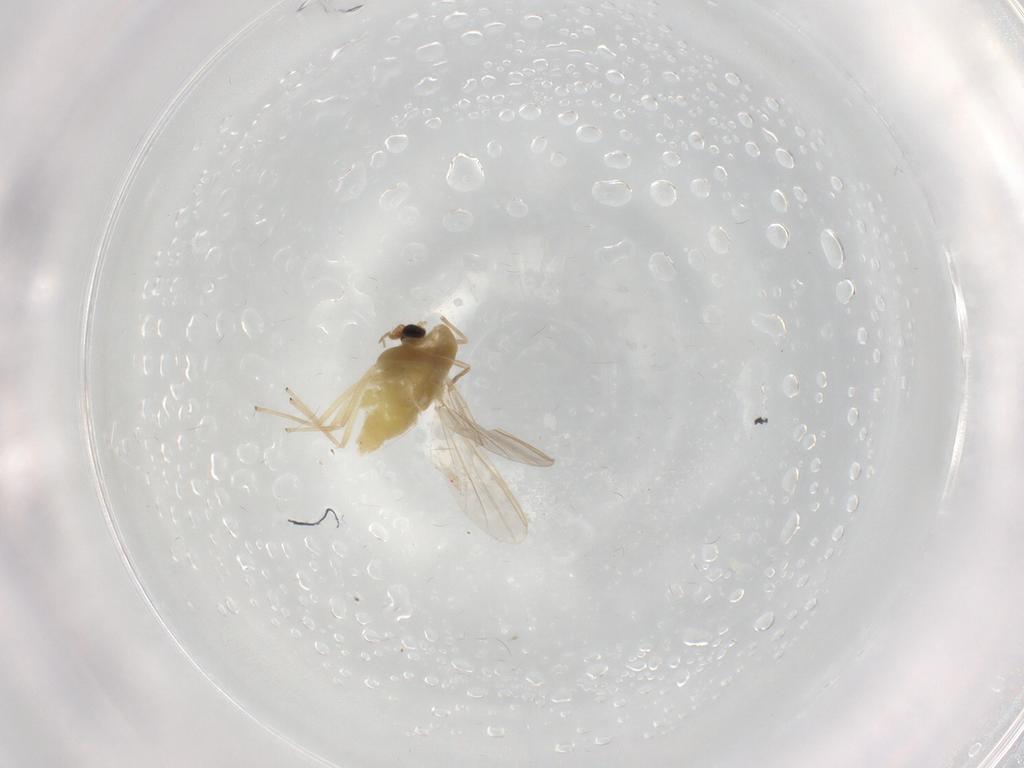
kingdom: Animalia
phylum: Arthropoda
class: Insecta
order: Diptera
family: Chironomidae
